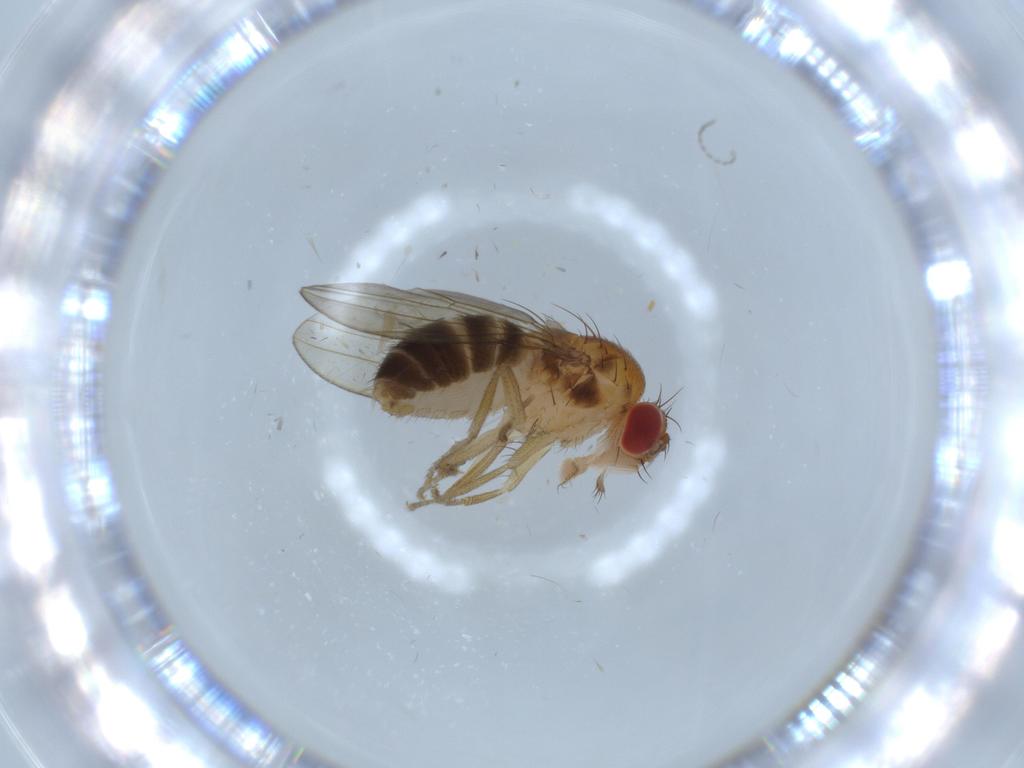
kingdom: Animalia
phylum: Arthropoda
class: Insecta
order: Diptera
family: Drosophilidae
